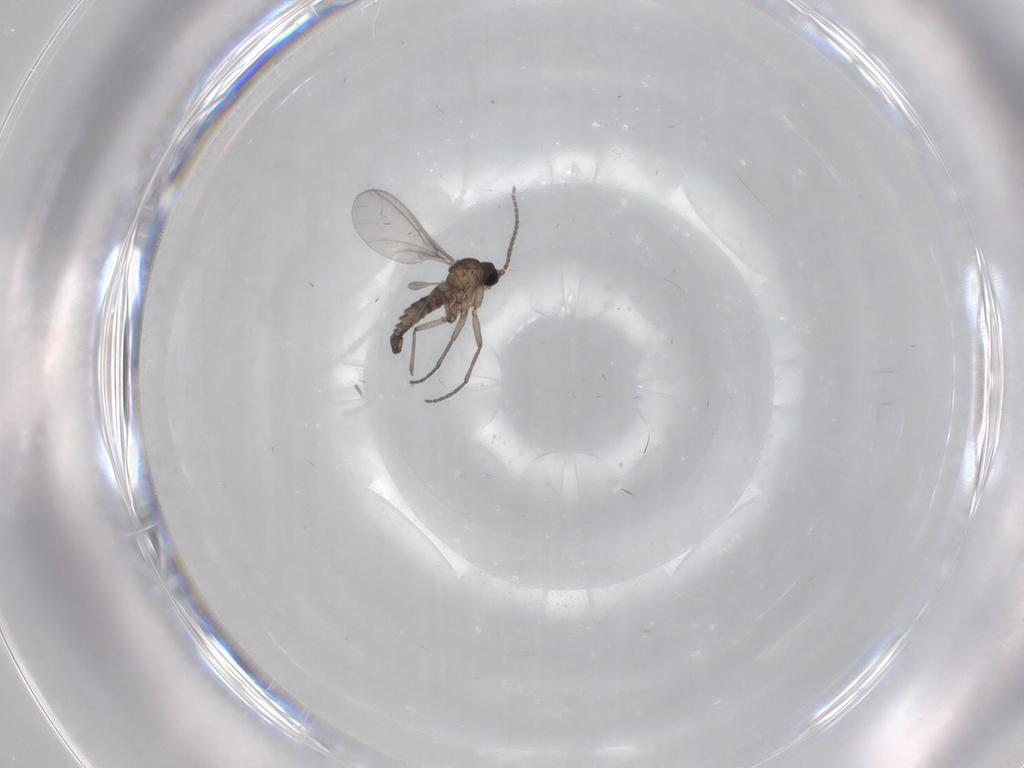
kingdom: Animalia
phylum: Arthropoda
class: Insecta
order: Diptera
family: Sciaridae
